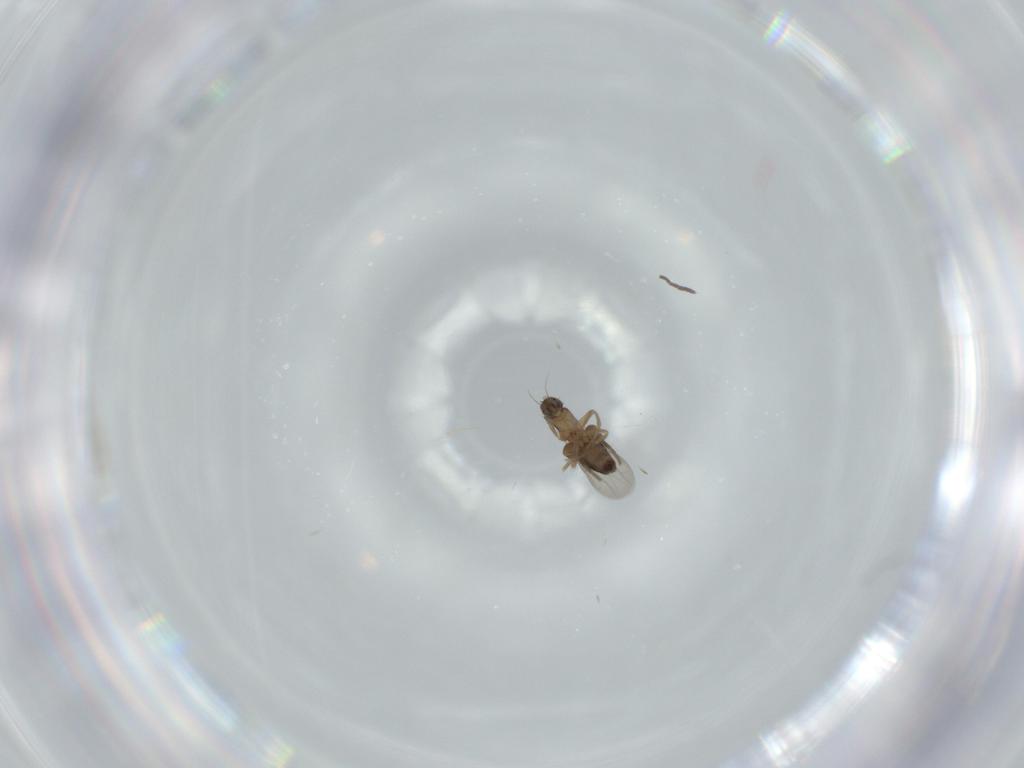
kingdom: Animalia
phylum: Arthropoda
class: Insecta
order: Diptera
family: Phoridae
